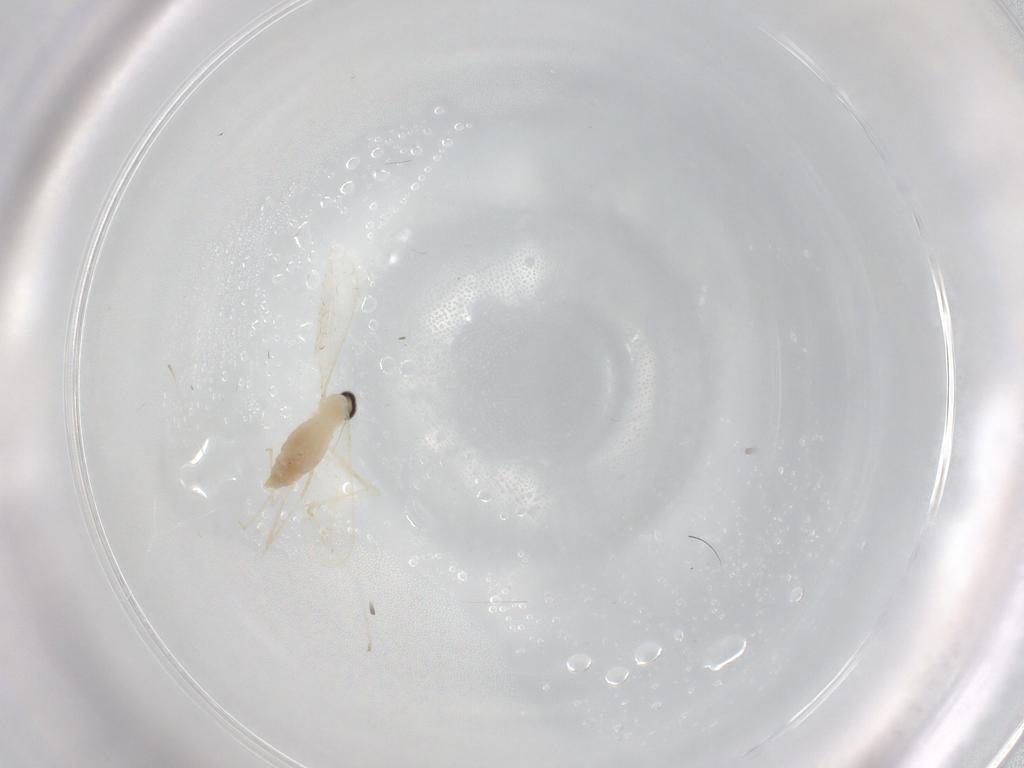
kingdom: Animalia
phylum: Arthropoda
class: Insecta
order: Diptera
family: Cecidomyiidae
